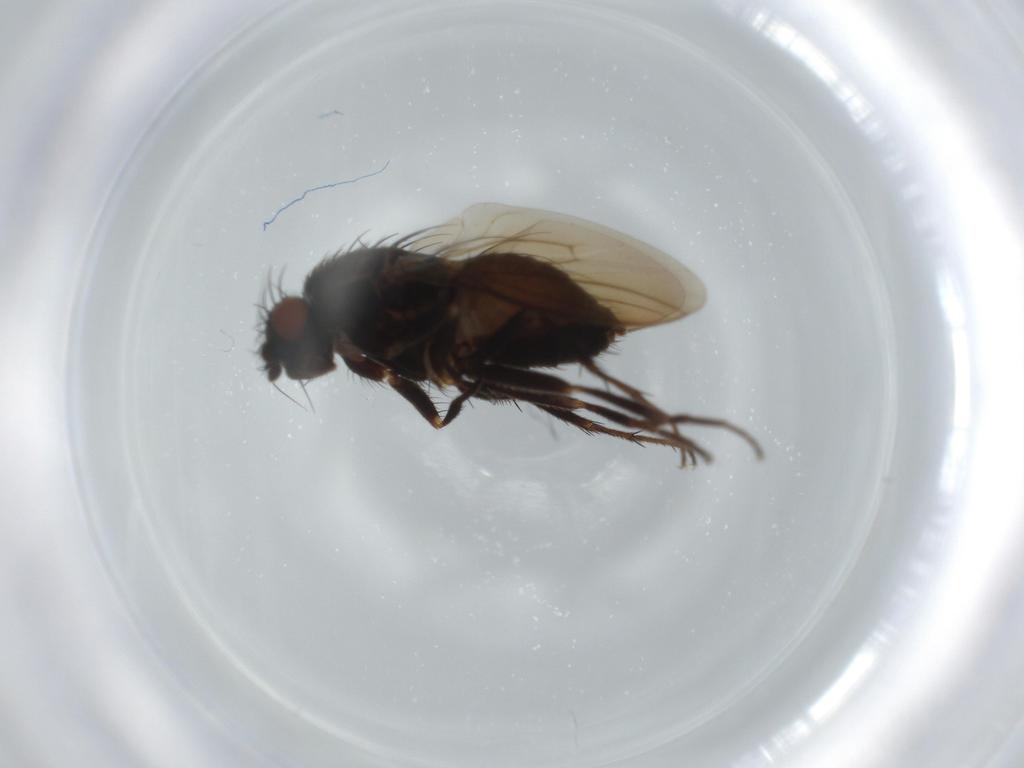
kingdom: Animalia
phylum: Arthropoda
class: Insecta
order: Diptera
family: Sphaeroceridae
